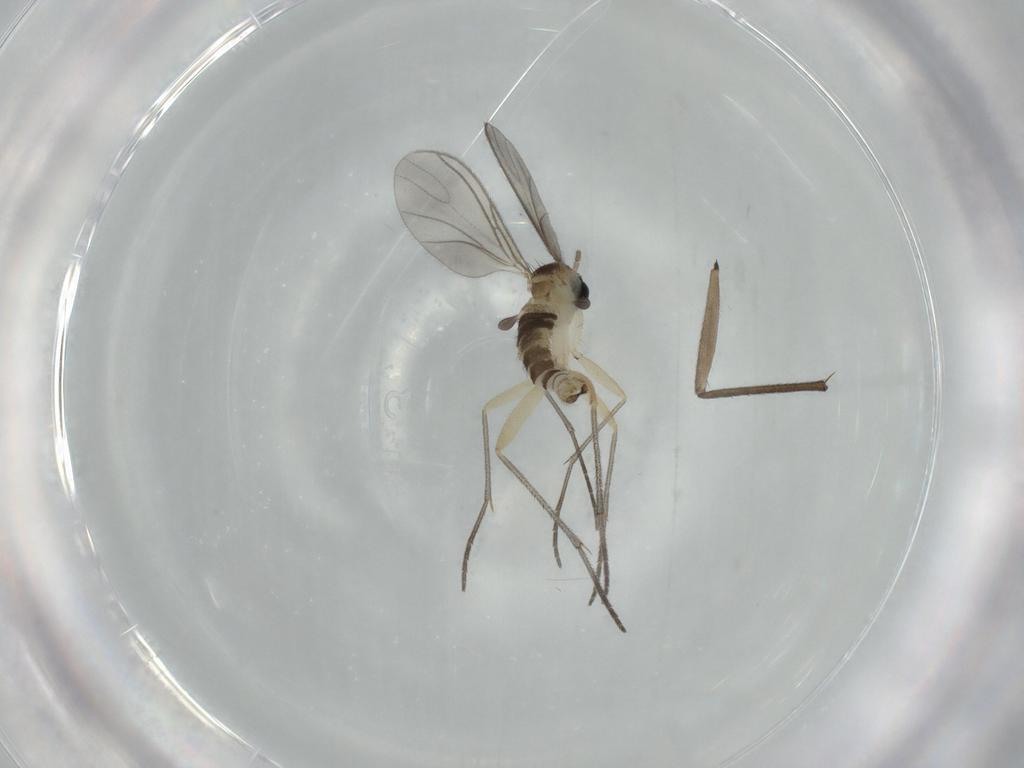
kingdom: Animalia
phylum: Arthropoda
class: Insecta
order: Diptera
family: Sciaridae
